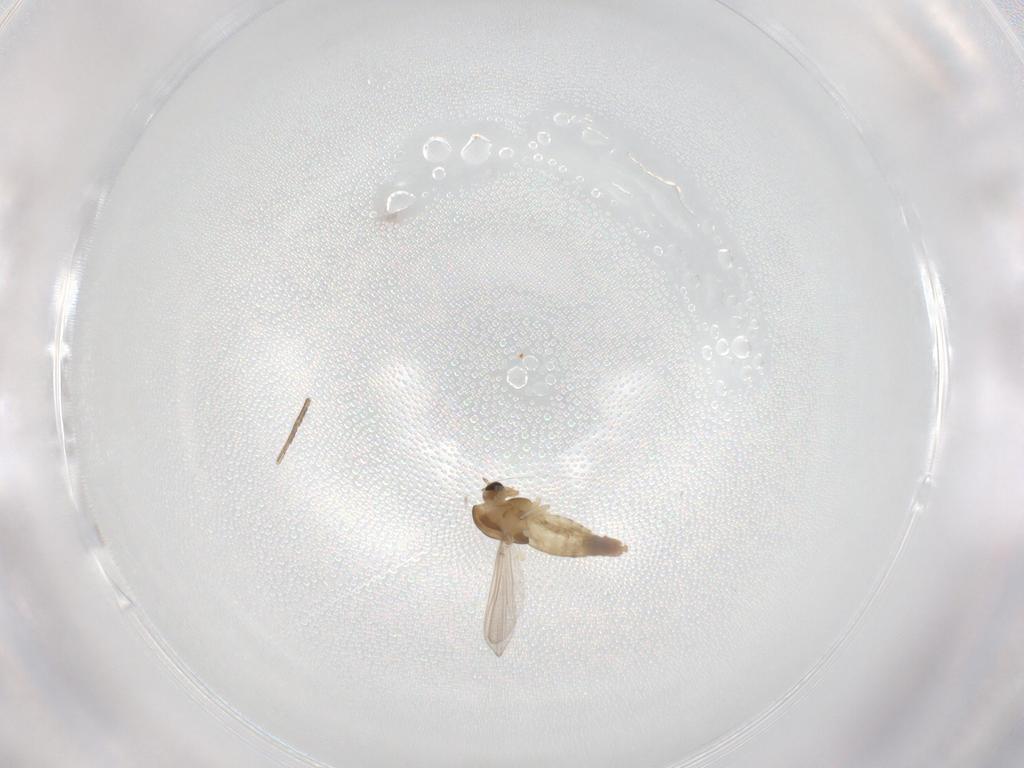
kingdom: Animalia
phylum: Arthropoda
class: Insecta
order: Diptera
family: Chironomidae
